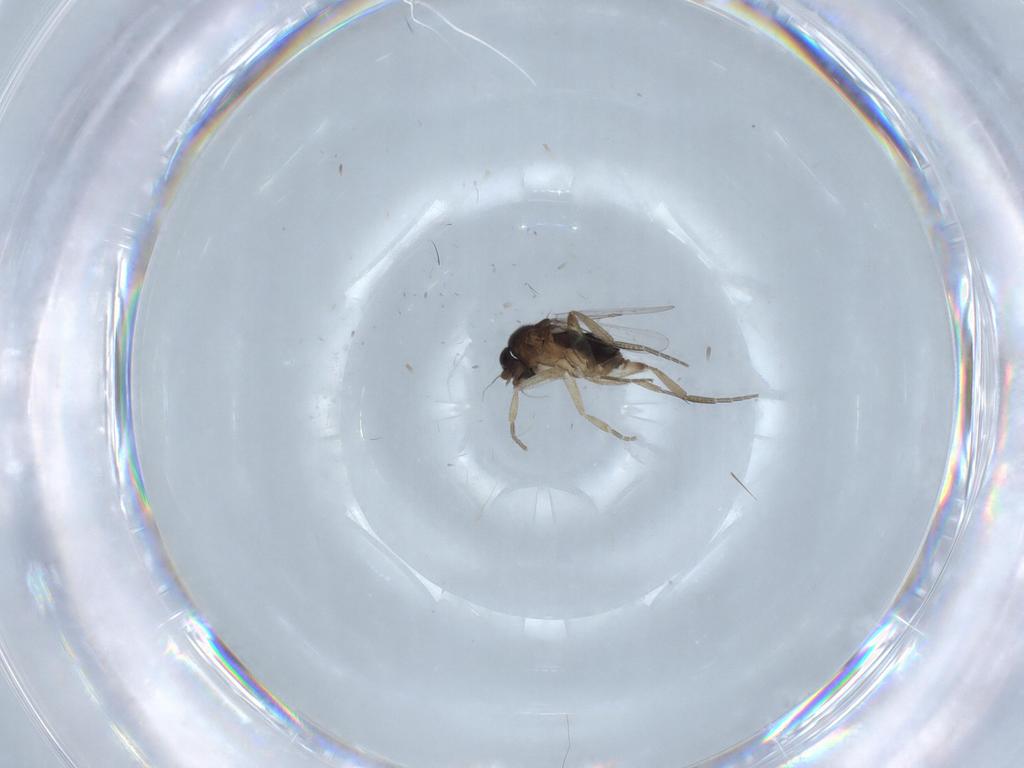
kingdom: Animalia
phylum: Arthropoda
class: Insecta
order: Diptera
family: Phoridae
